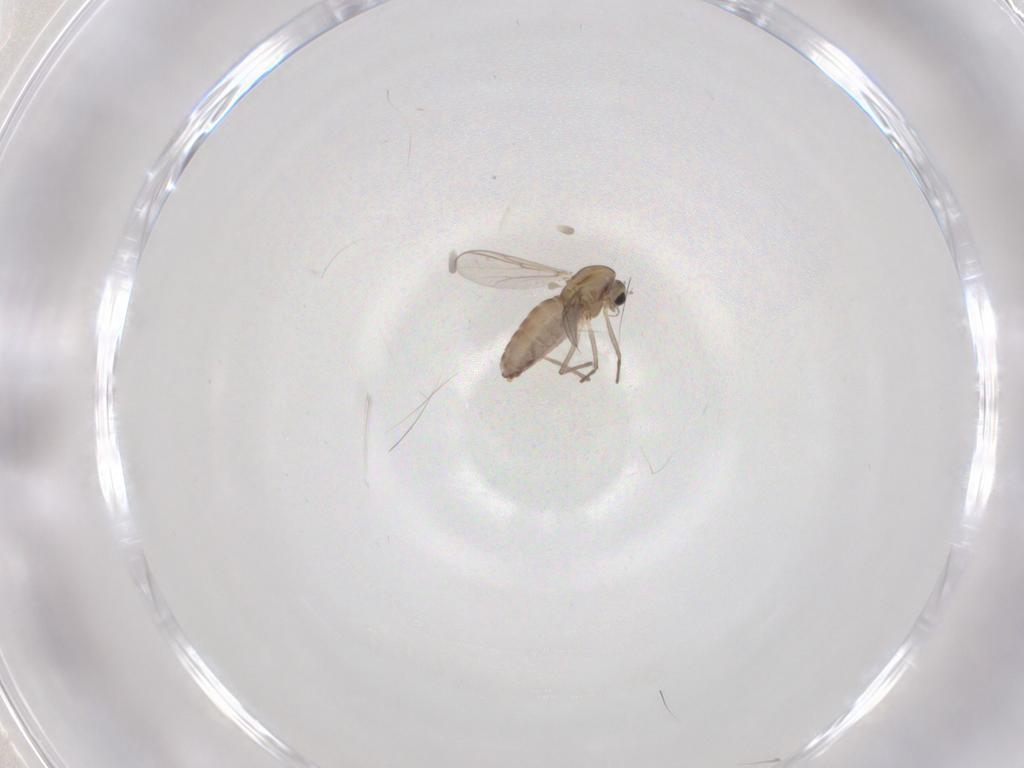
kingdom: Animalia
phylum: Arthropoda
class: Insecta
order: Diptera
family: Chironomidae
